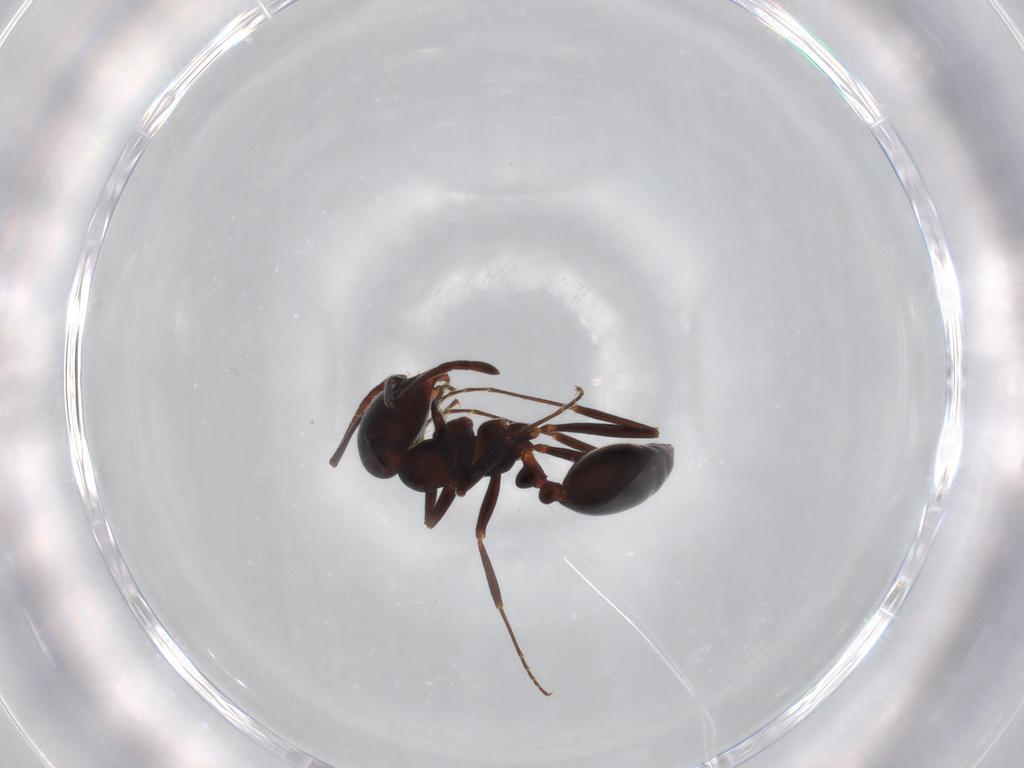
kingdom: Animalia
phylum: Arthropoda
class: Insecta
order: Hymenoptera
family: Formicidae
